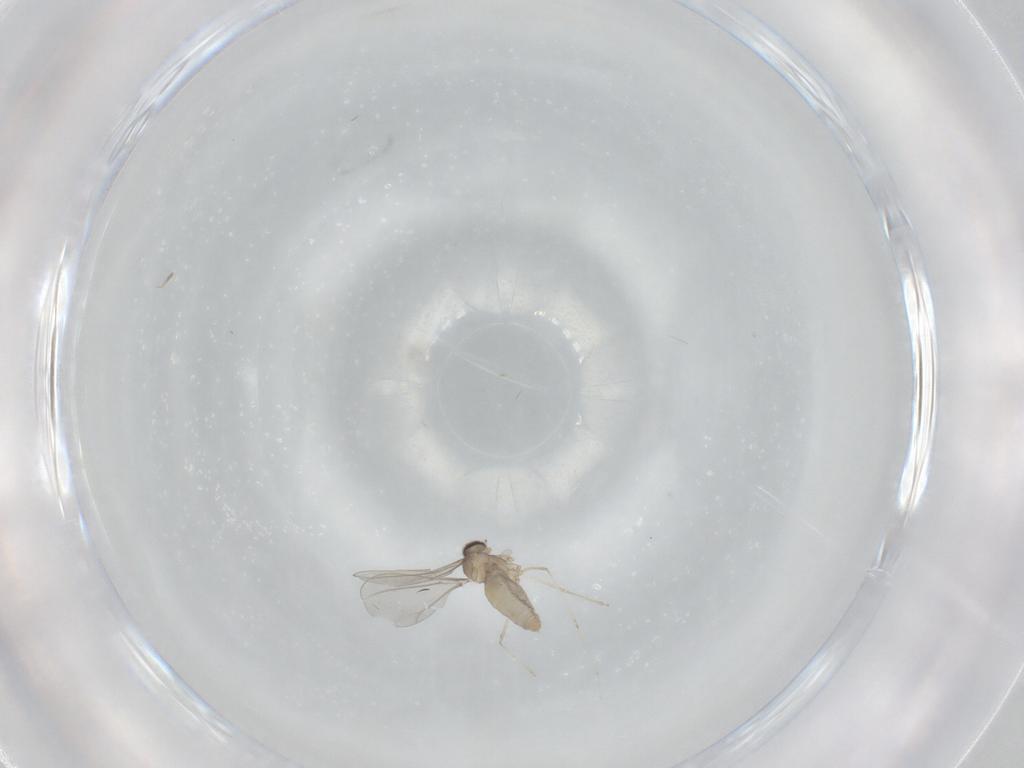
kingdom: Animalia
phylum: Arthropoda
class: Insecta
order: Diptera
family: Cecidomyiidae
